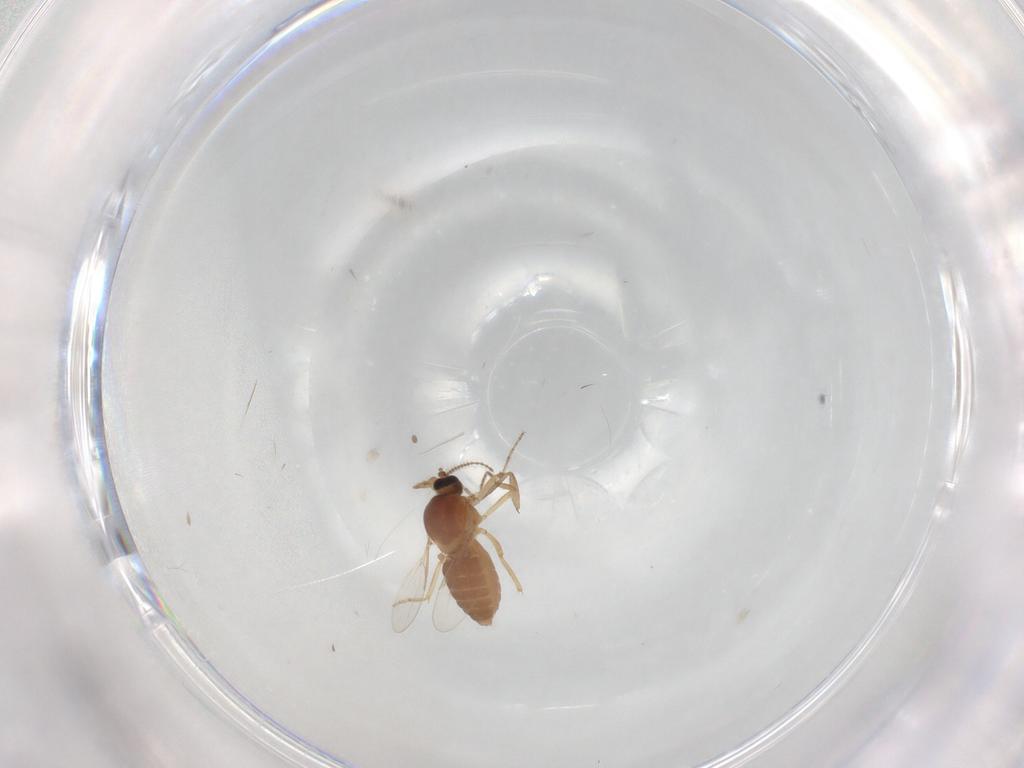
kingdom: Animalia
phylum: Arthropoda
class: Insecta
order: Diptera
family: Ceratopogonidae
